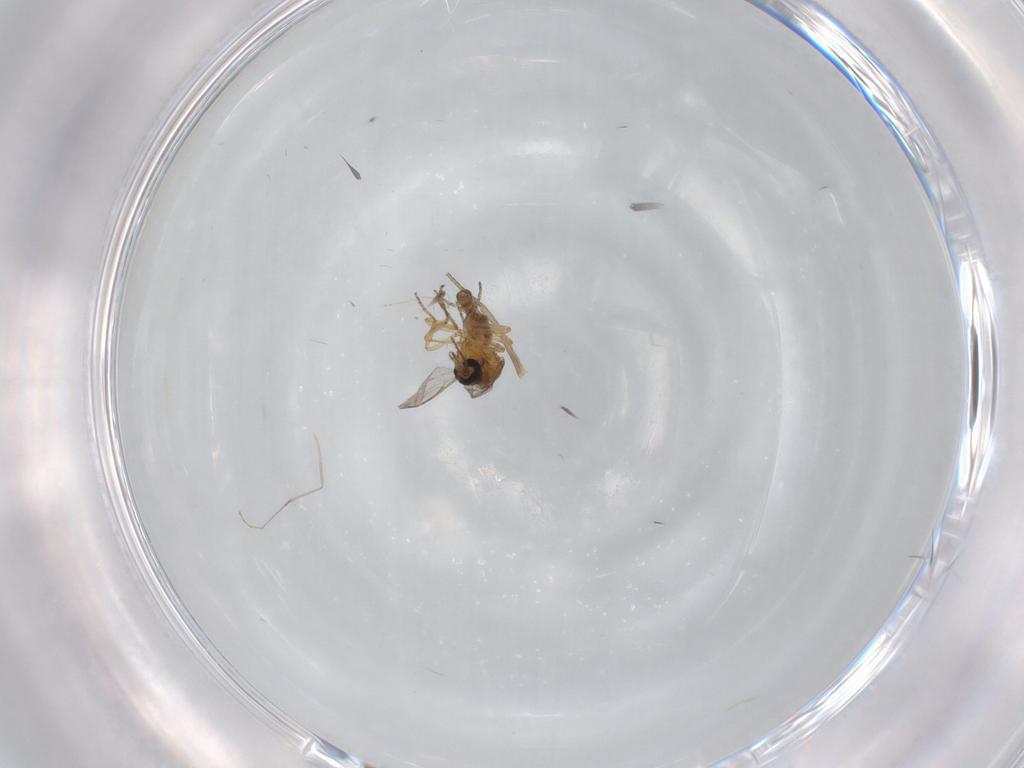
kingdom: Animalia
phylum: Arthropoda
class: Insecta
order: Diptera
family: Ceratopogonidae
